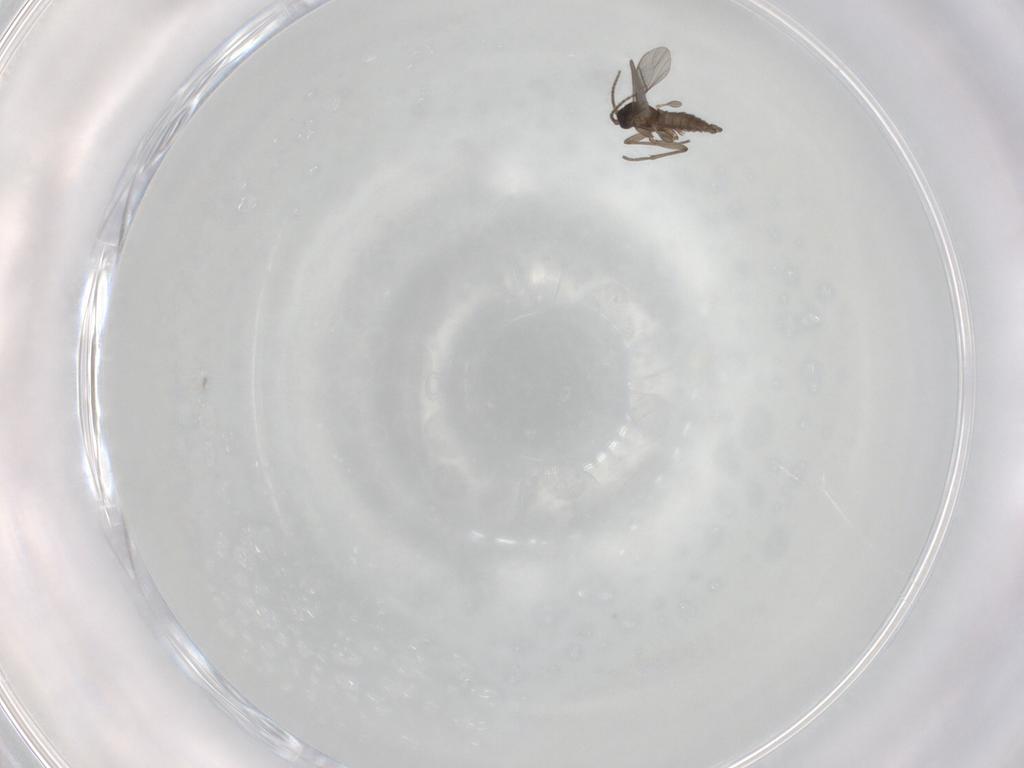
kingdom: Animalia
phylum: Arthropoda
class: Insecta
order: Diptera
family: Sciaridae
